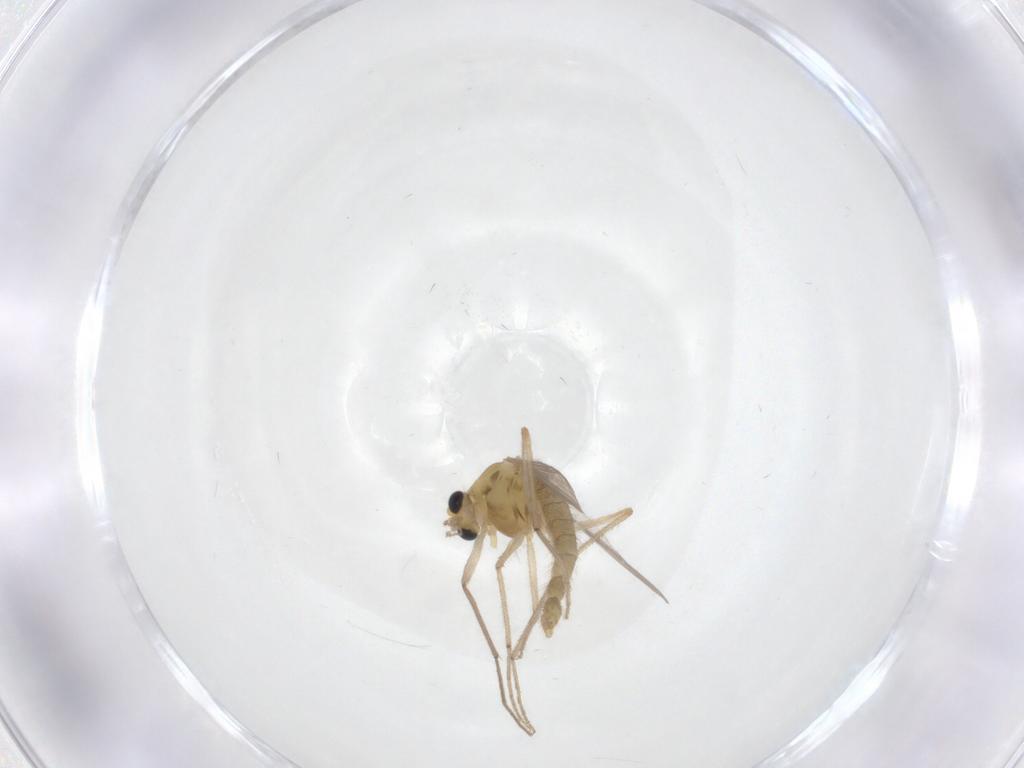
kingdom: Animalia
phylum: Arthropoda
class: Insecta
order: Diptera
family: Chironomidae
